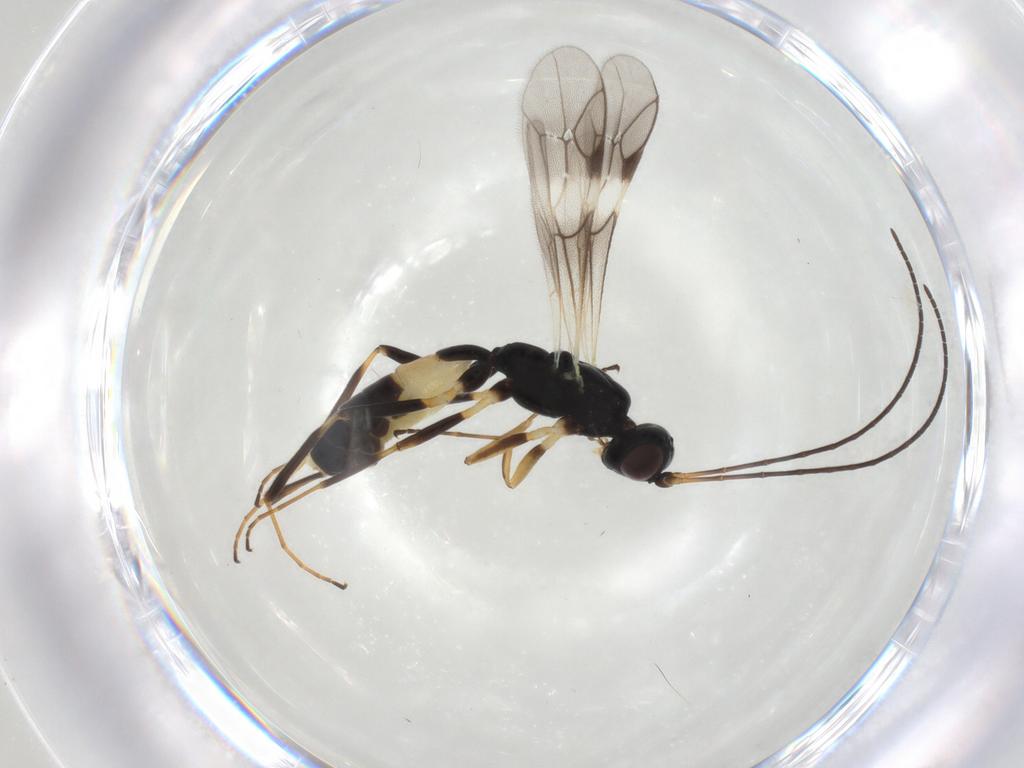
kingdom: Animalia
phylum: Arthropoda
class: Insecta
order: Hymenoptera
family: Ichneumonidae
